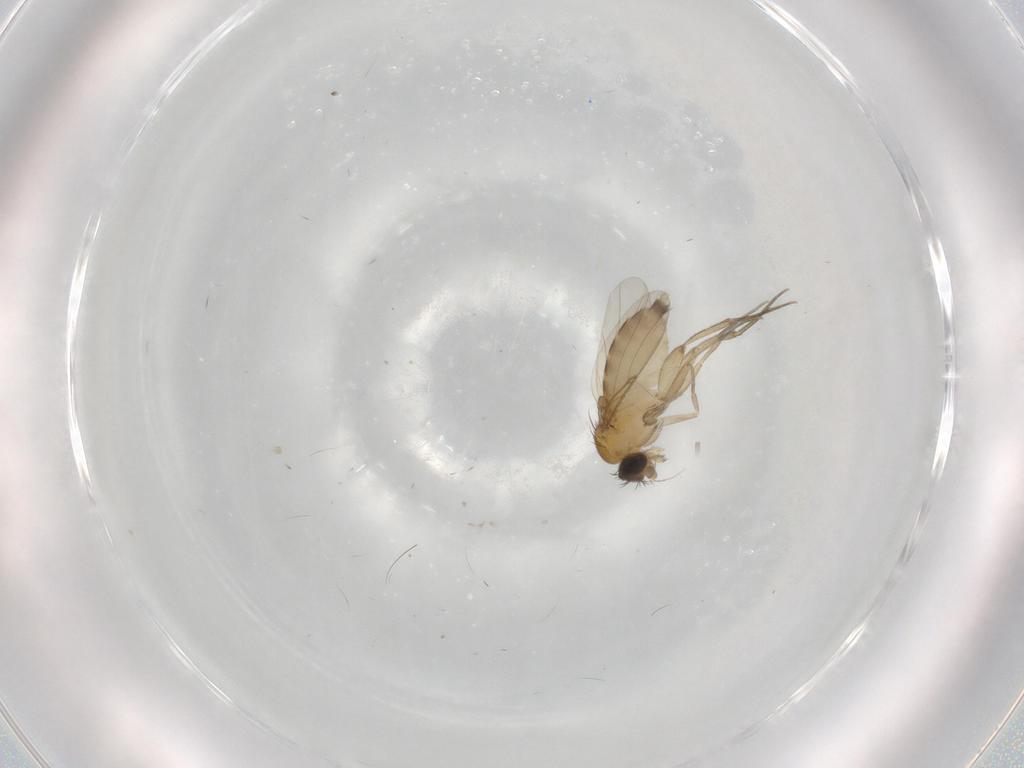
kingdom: Animalia
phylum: Arthropoda
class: Insecta
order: Diptera
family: Phoridae
